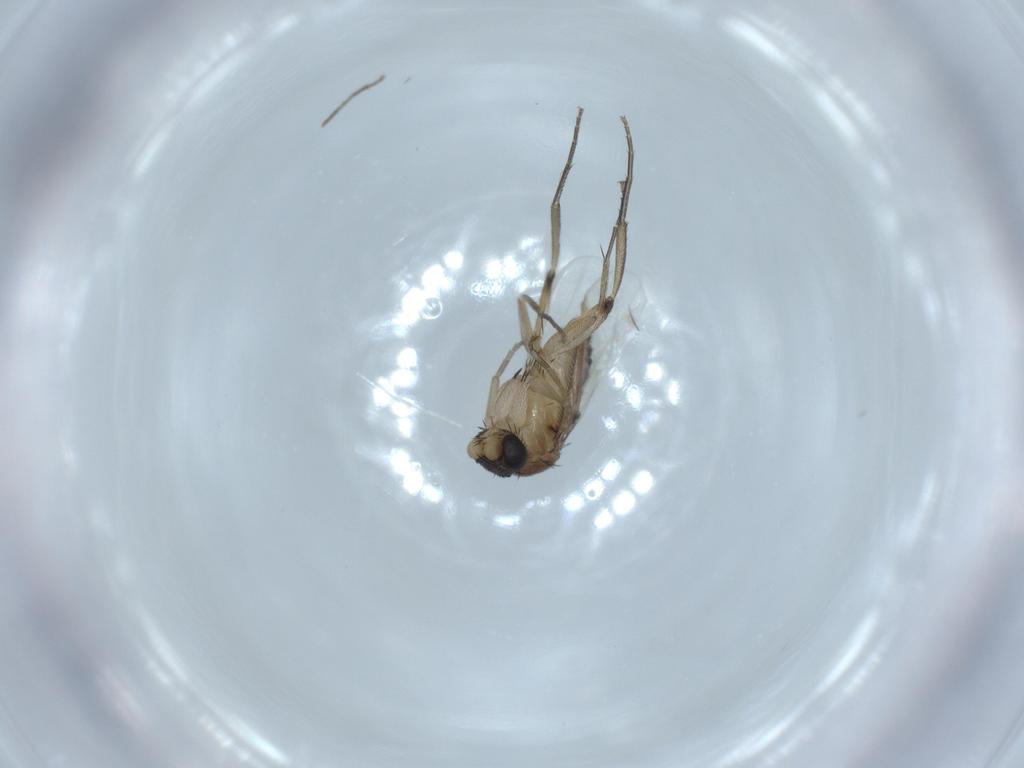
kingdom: Animalia
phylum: Arthropoda
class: Insecta
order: Diptera
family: Phoridae
